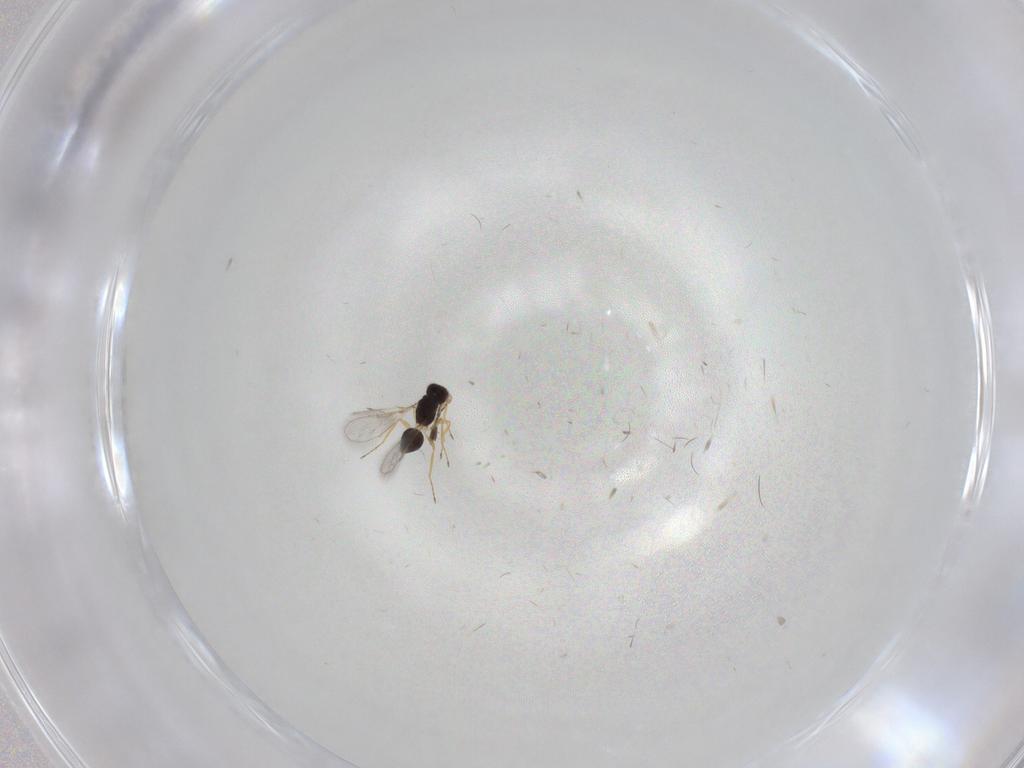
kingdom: Animalia
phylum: Arthropoda
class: Insecta
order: Hymenoptera
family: Mymaridae
